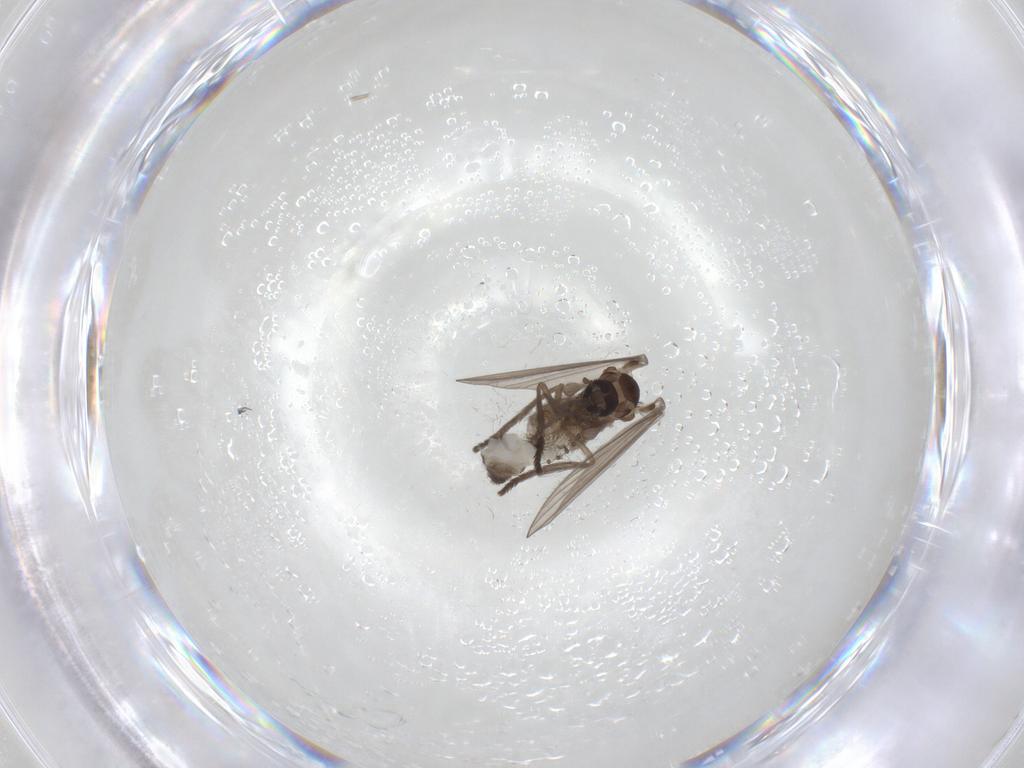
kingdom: Animalia
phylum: Arthropoda
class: Insecta
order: Diptera
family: Psychodidae
